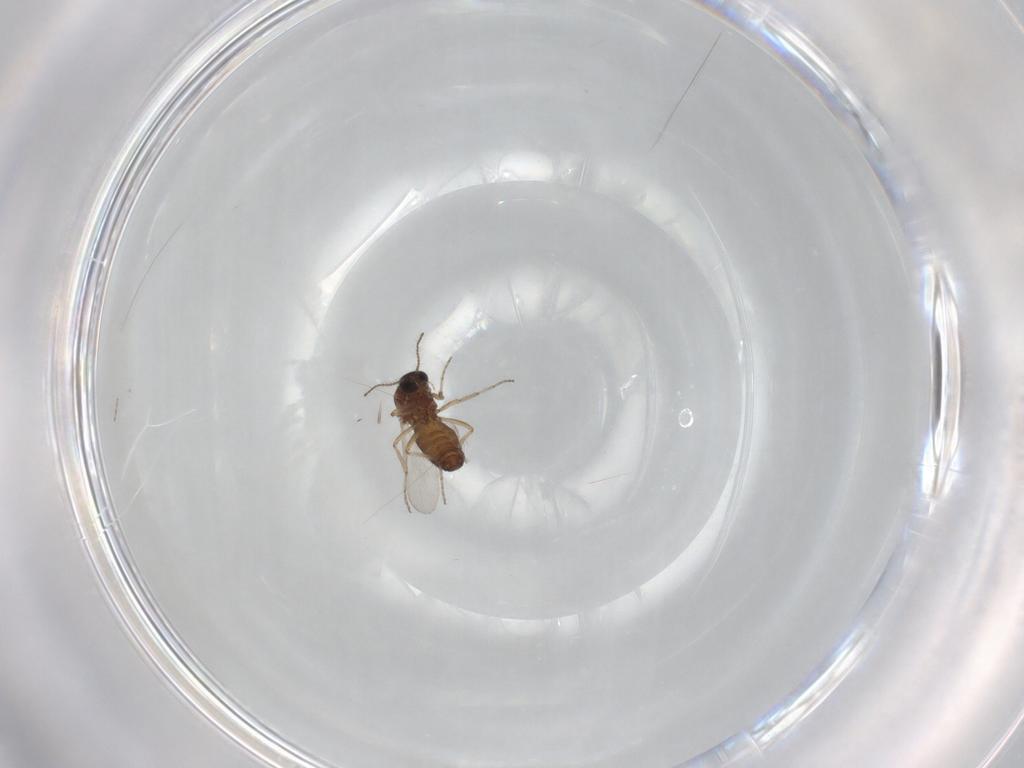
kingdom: Animalia
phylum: Arthropoda
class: Insecta
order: Diptera
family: Ceratopogonidae
